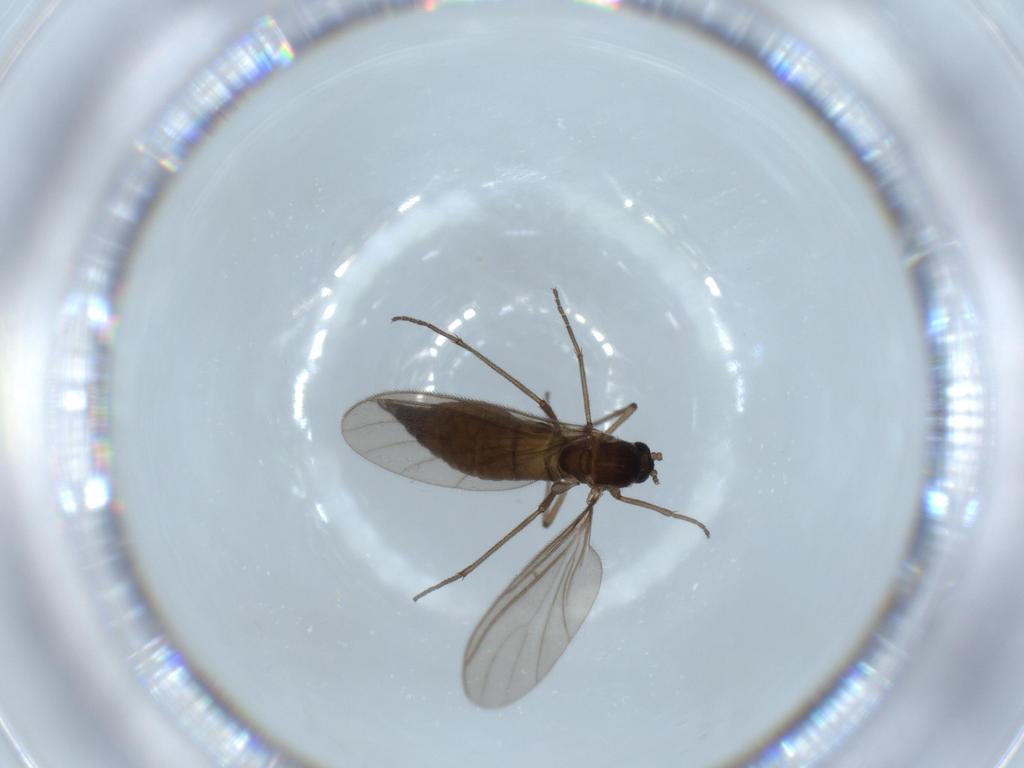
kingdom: Animalia
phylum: Arthropoda
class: Insecta
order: Diptera
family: Sciaridae
